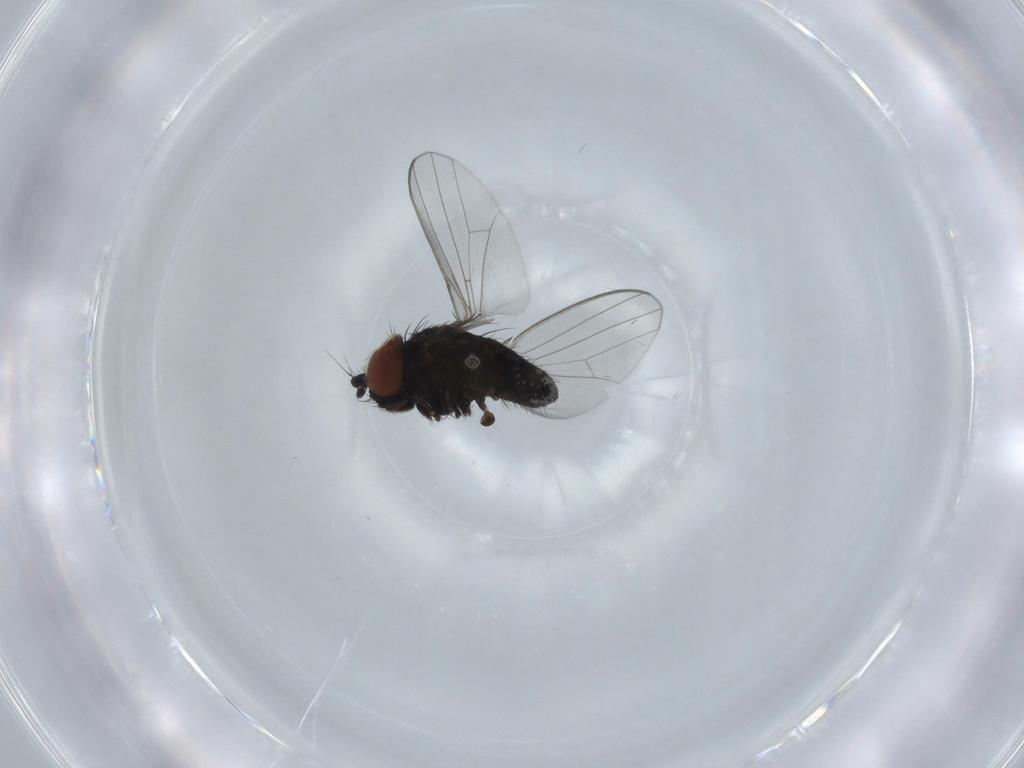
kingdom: Animalia
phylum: Arthropoda
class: Insecta
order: Diptera
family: Milichiidae
